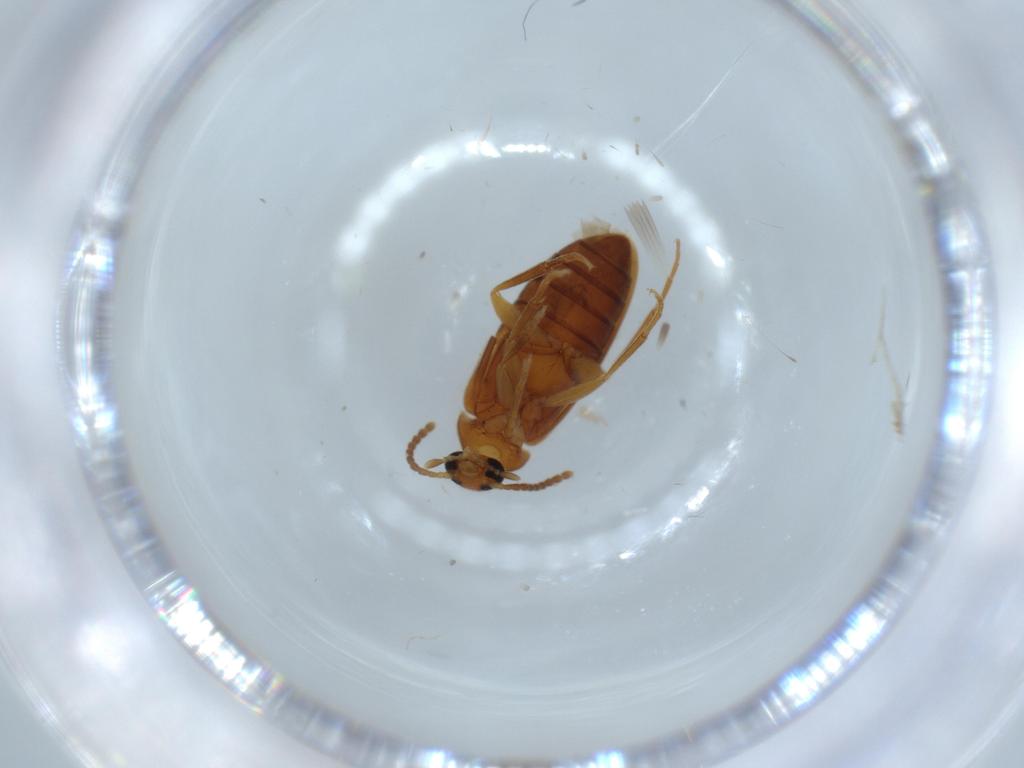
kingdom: Animalia
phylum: Arthropoda
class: Insecta
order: Coleoptera
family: Scraptiidae
